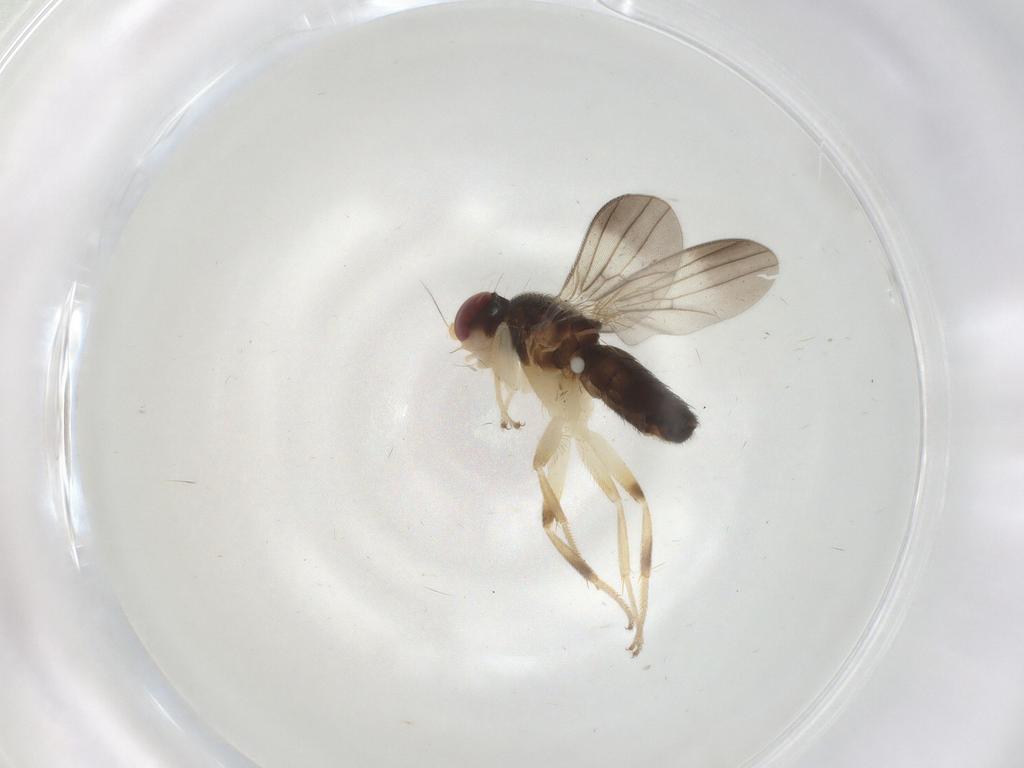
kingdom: Animalia
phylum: Arthropoda
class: Insecta
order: Diptera
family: Clusiidae
